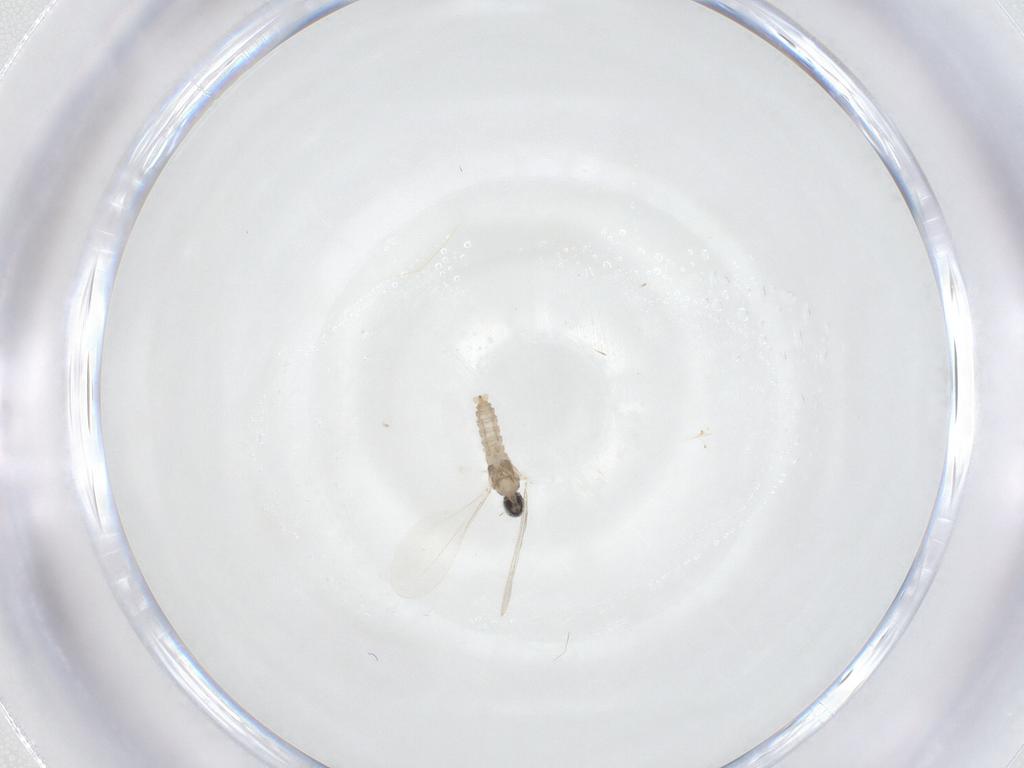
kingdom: Animalia
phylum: Arthropoda
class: Insecta
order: Diptera
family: Cecidomyiidae
